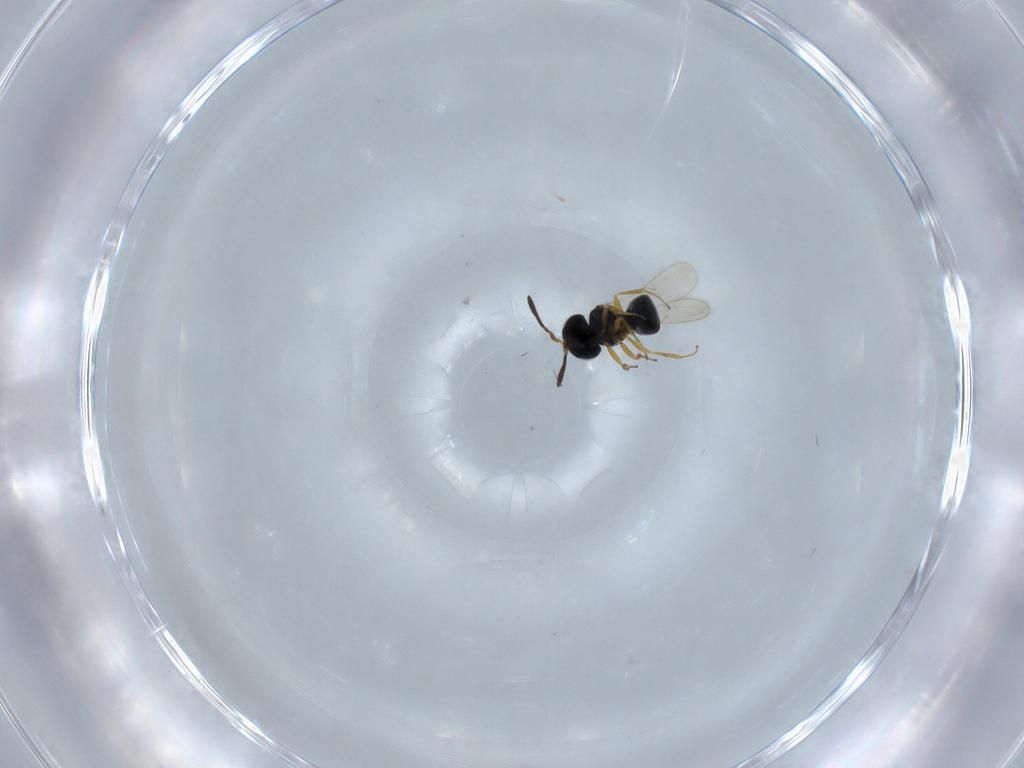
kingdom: Animalia
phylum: Arthropoda
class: Insecta
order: Hymenoptera
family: Scelionidae
